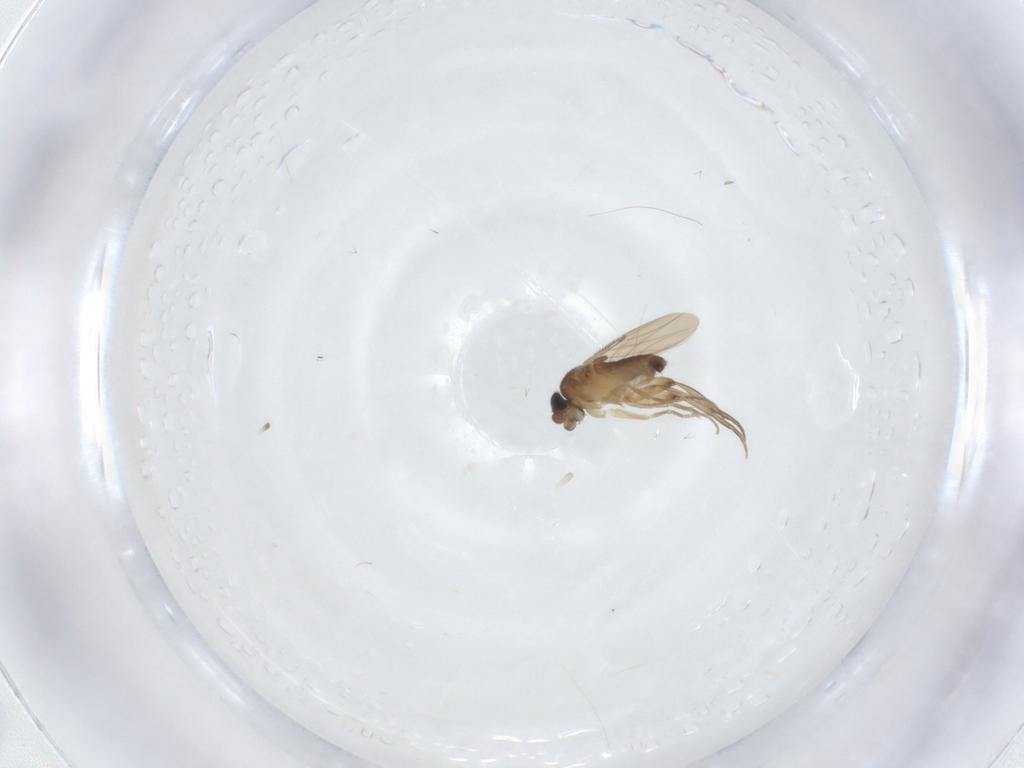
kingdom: Animalia
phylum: Arthropoda
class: Insecta
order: Diptera
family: Phoridae
